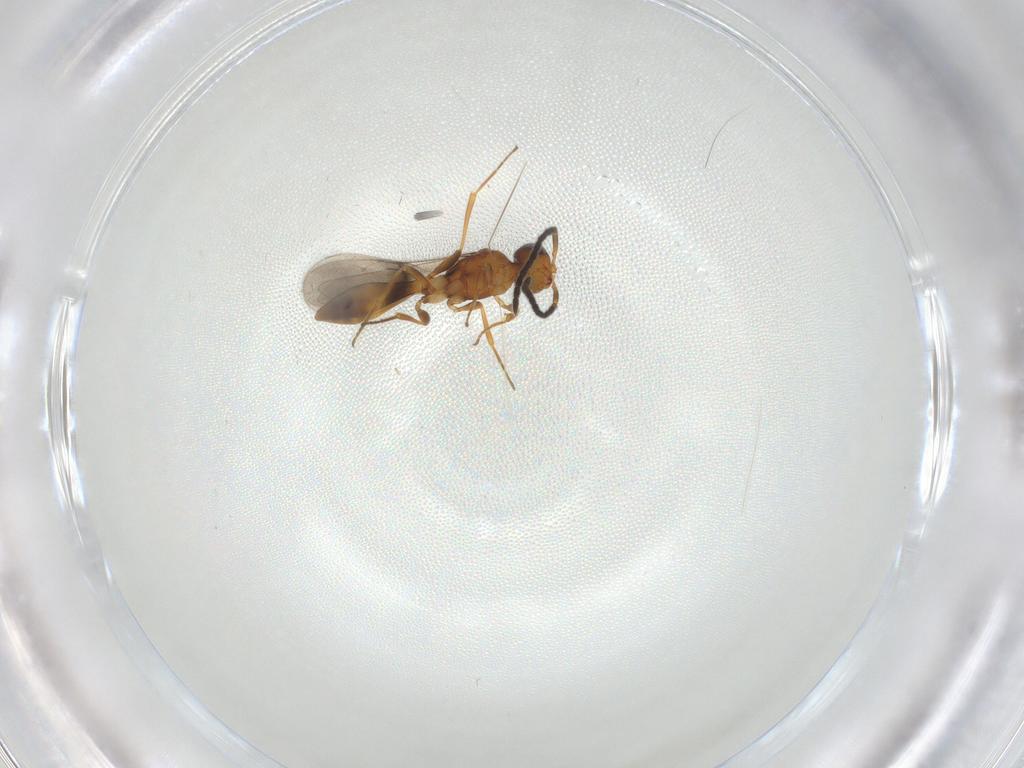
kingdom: Animalia
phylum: Arthropoda
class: Insecta
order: Hymenoptera
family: Scelionidae
